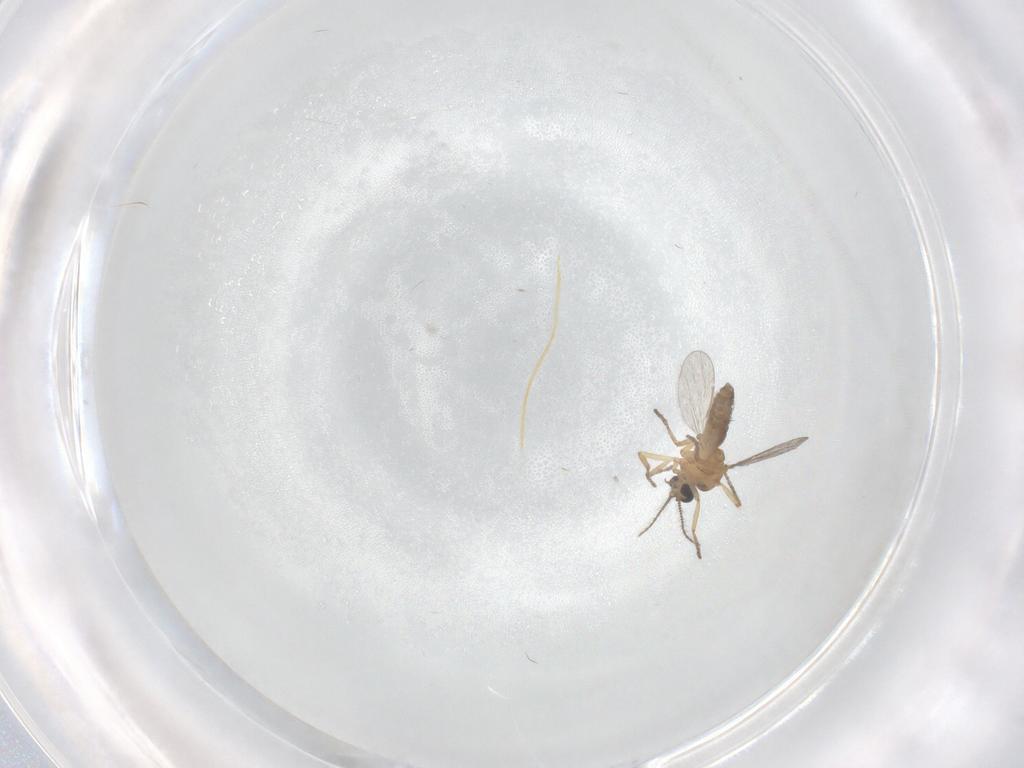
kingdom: Animalia
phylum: Arthropoda
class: Insecta
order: Diptera
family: Ceratopogonidae
